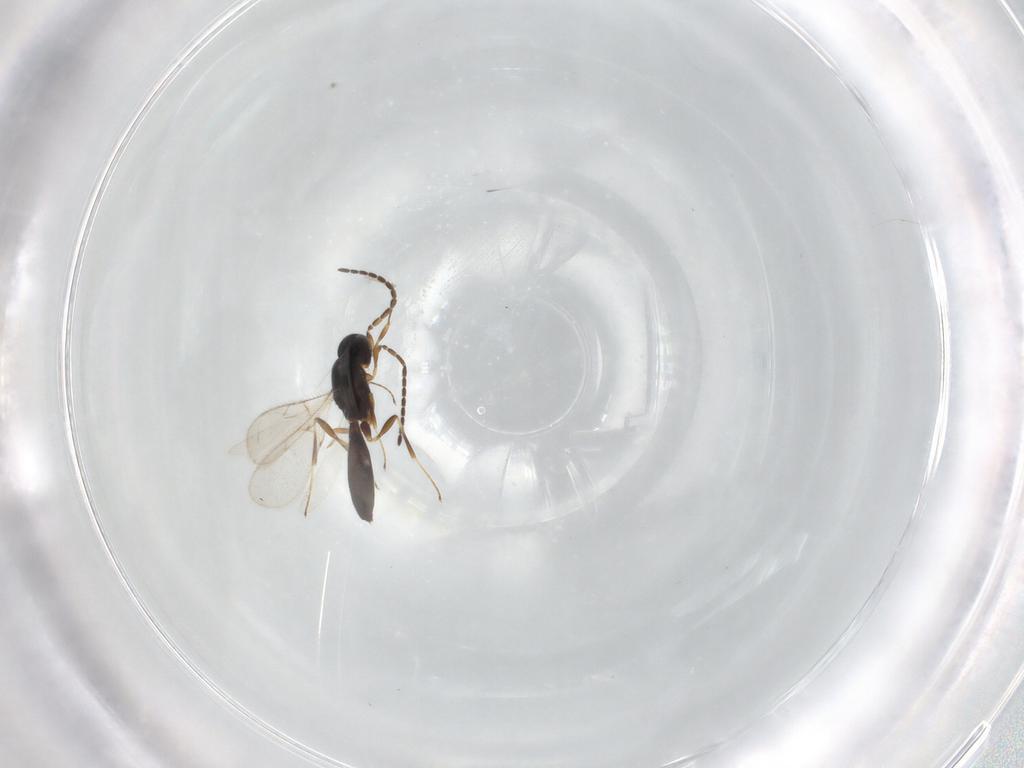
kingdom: Animalia
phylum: Arthropoda
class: Insecta
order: Hymenoptera
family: Scelionidae
